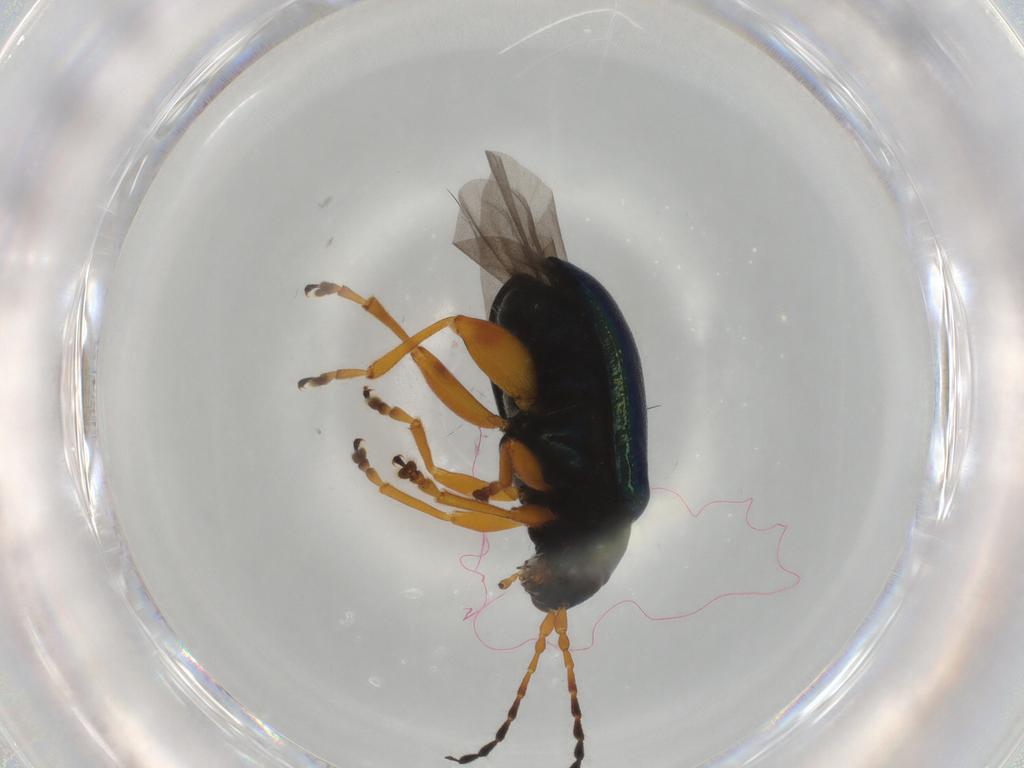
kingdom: Animalia
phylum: Arthropoda
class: Insecta
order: Coleoptera
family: Chrysomelidae
